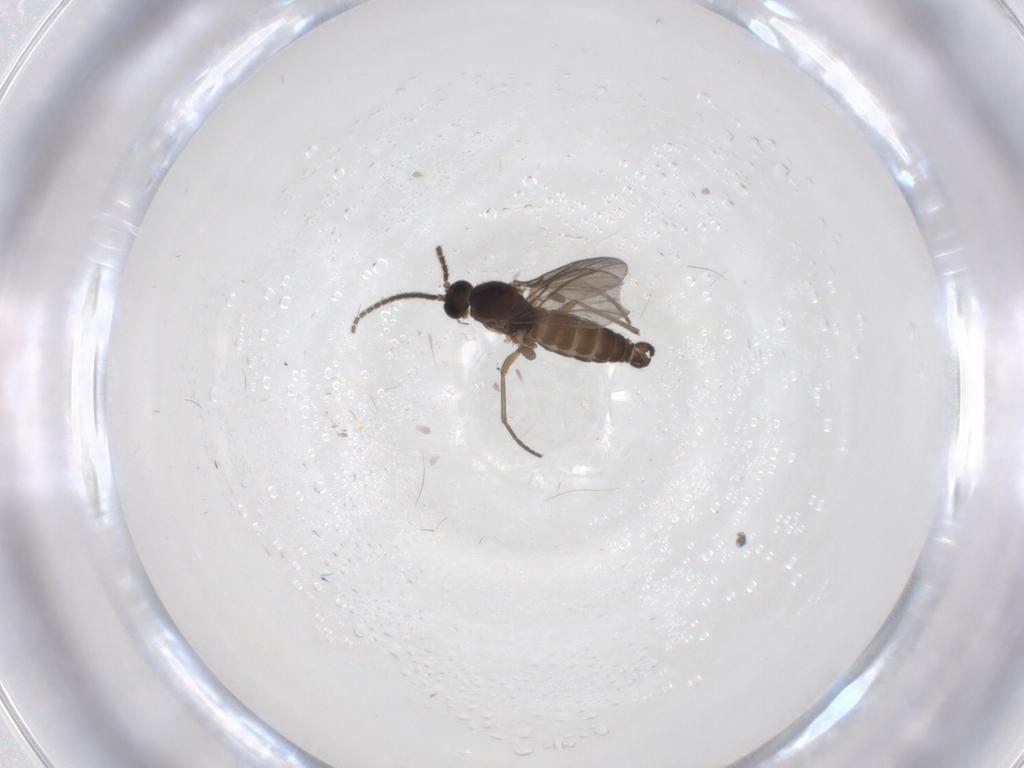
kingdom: Animalia
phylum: Arthropoda
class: Insecta
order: Diptera
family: Sciaridae
